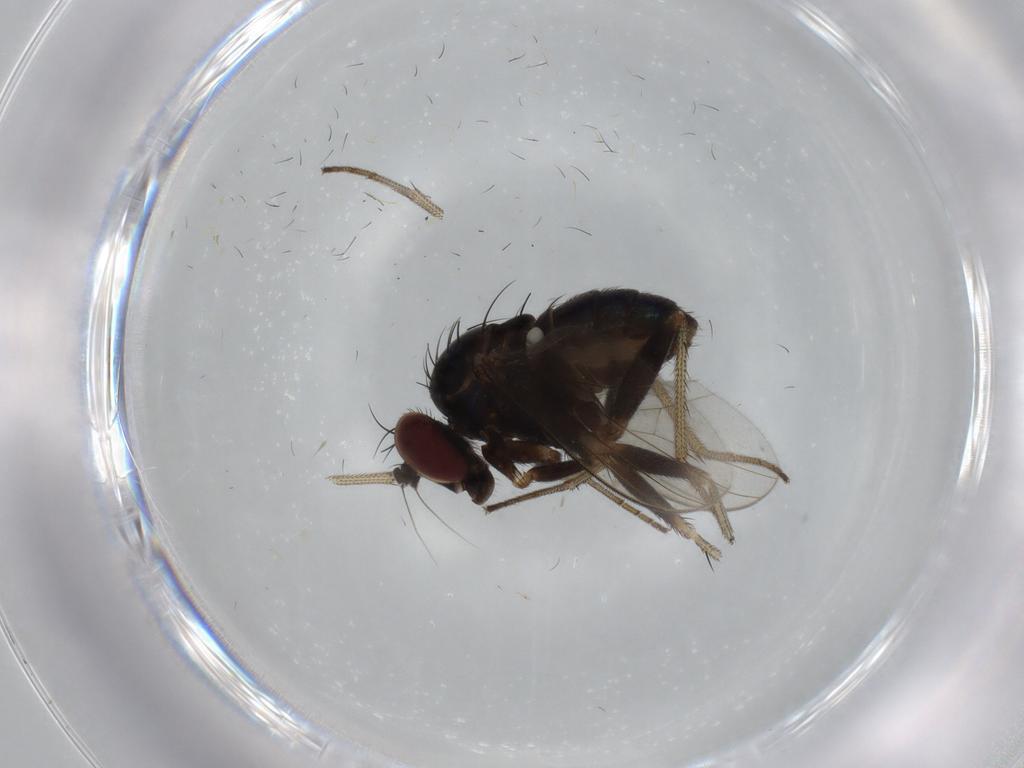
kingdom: Animalia
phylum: Arthropoda
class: Insecta
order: Diptera
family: Dolichopodidae
